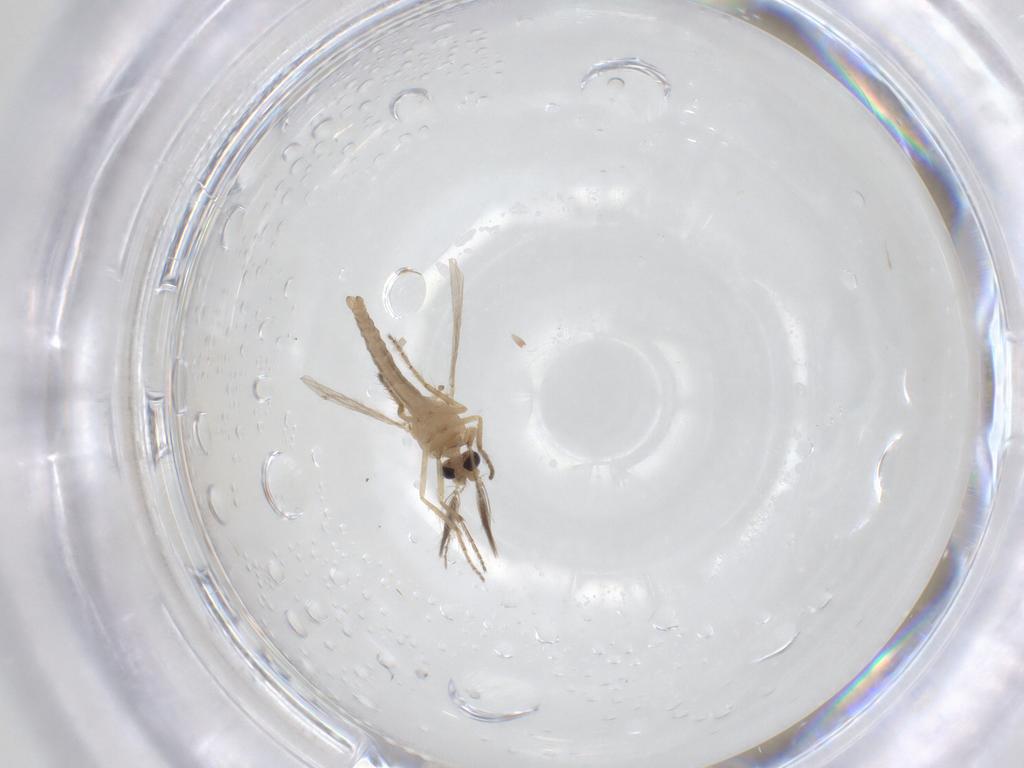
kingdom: Animalia
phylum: Arthropoda
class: Insecta
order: Diptera
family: Ceratopogonidae
